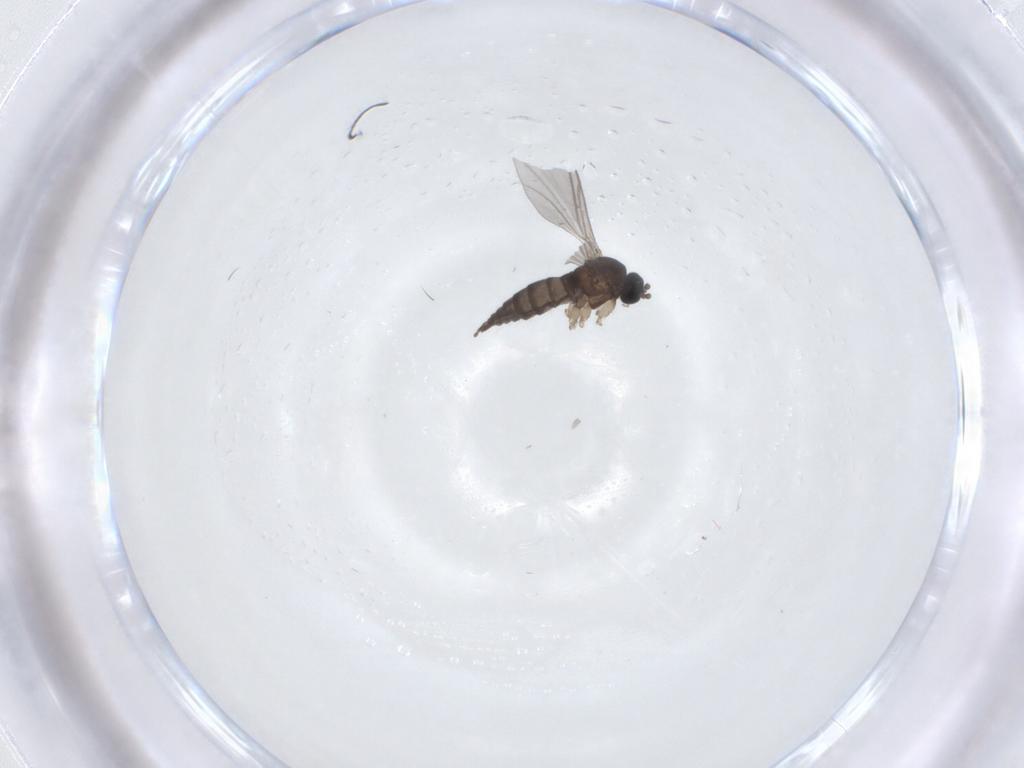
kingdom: Animalia
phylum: Arthropoda
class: Insecta
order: Diptera
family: Sciaridae
